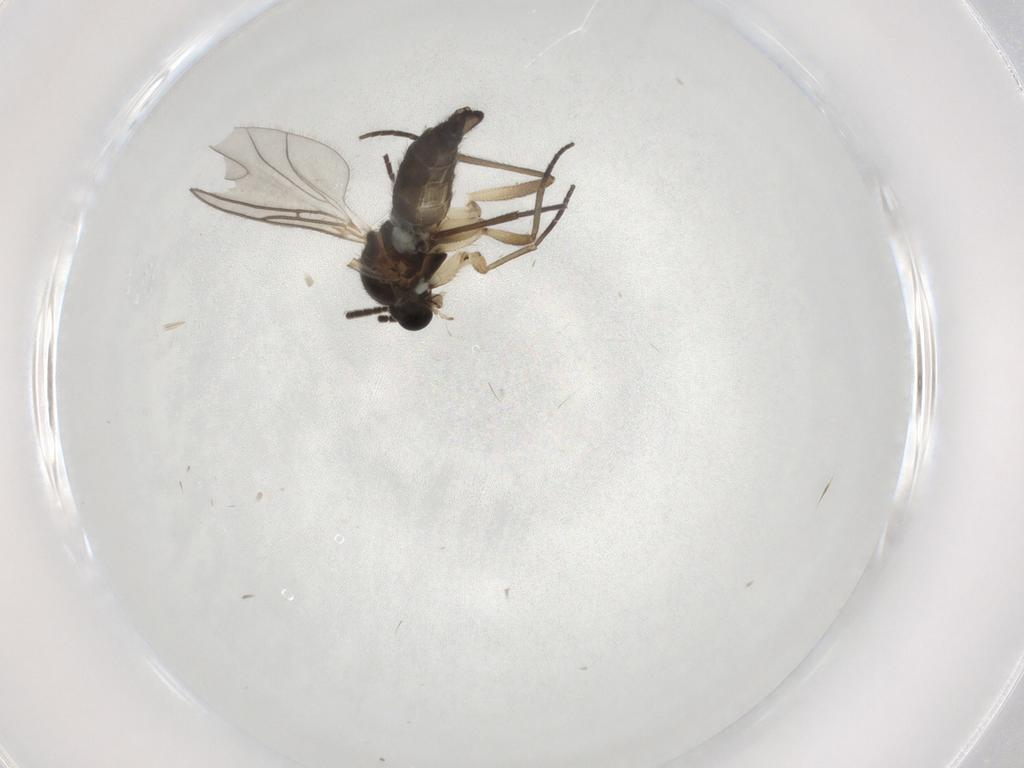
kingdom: Animalia
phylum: Arthropoda
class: Insecta
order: Diptera
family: Sciaridae
